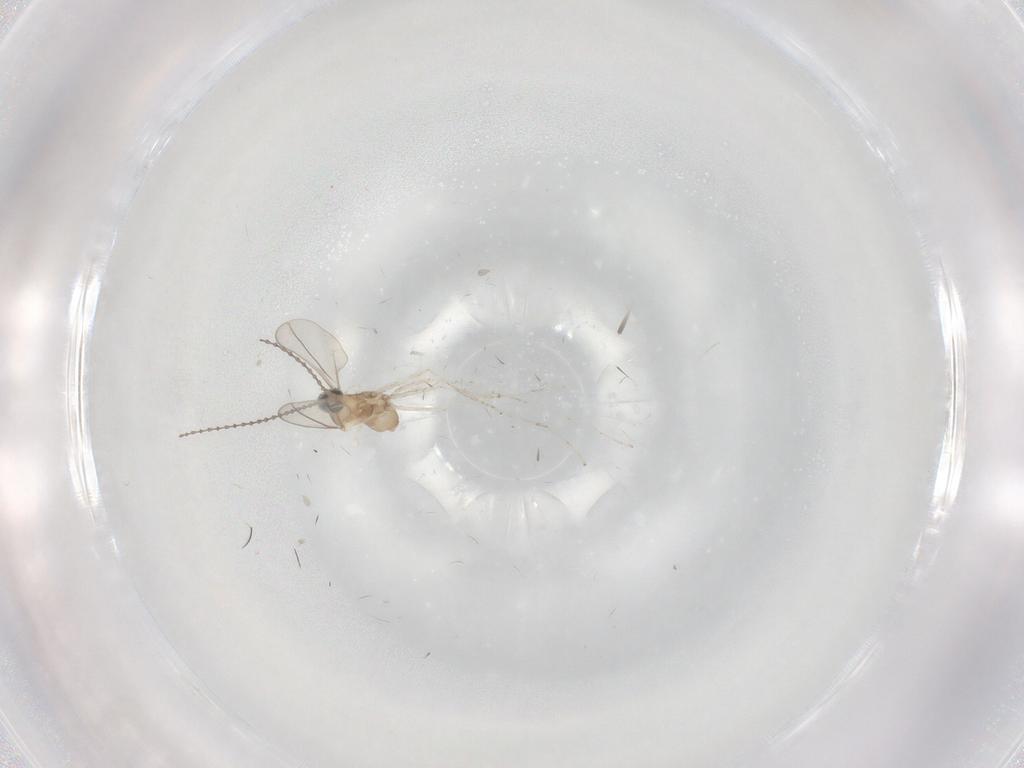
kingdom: Animalia
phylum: Arthropoda
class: Insecta
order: Diptera
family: Cecidomyiidae
